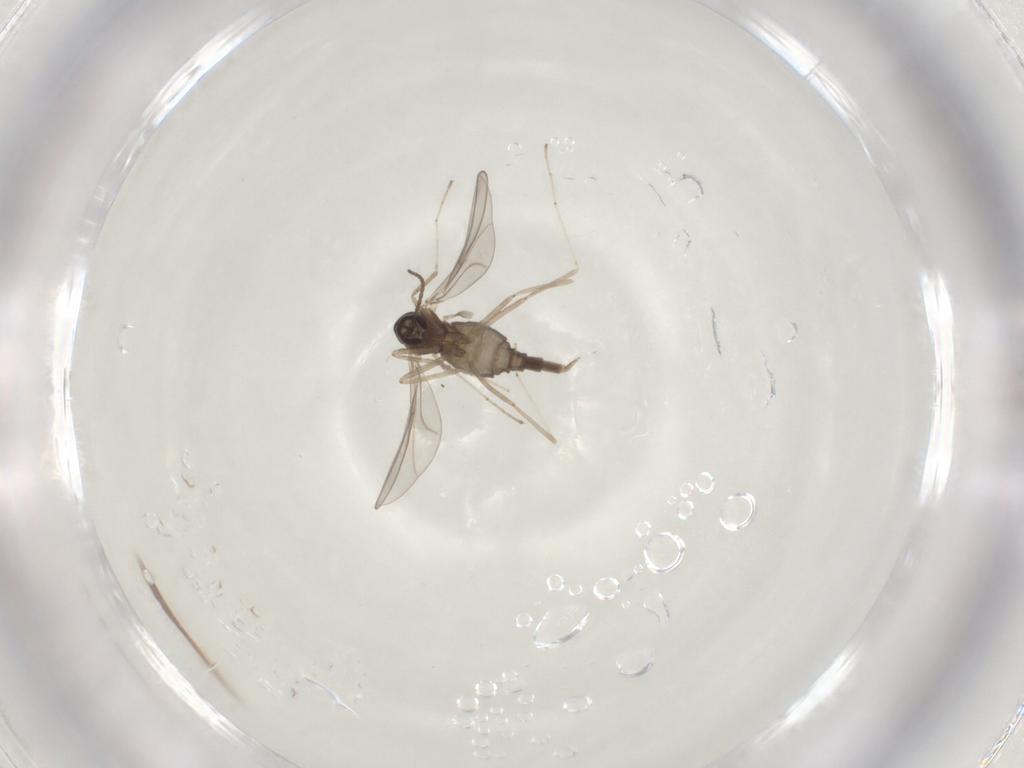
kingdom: Animalia
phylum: Arthropoda
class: Insecta
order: Diptera
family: Cecidomyiidae
